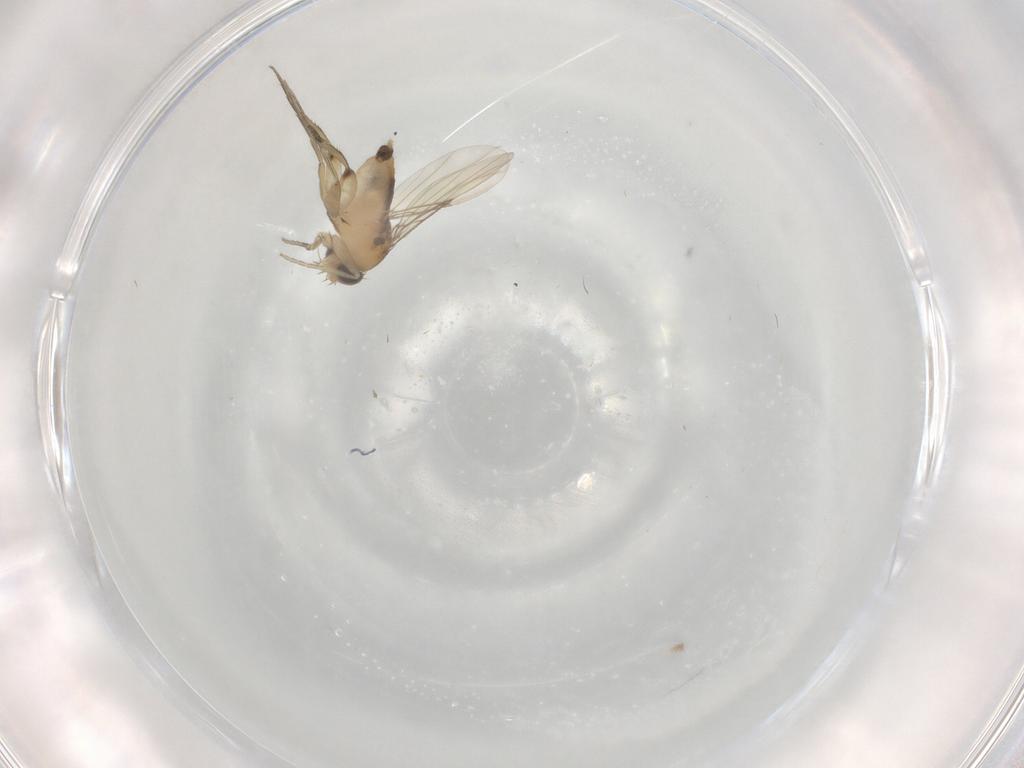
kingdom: Animalia
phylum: Arthropoda
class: Insecta
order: Diptera
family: Phoridae
